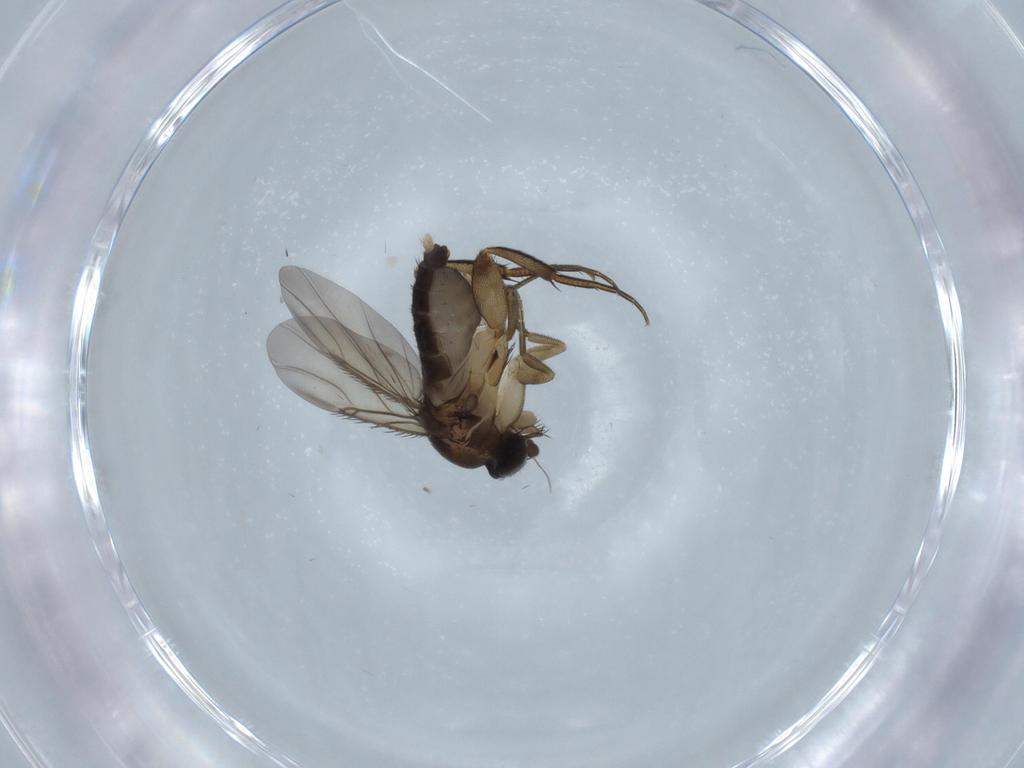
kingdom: Animalia
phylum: Arthropoda
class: Insecta
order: Diptera
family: Phoridae
